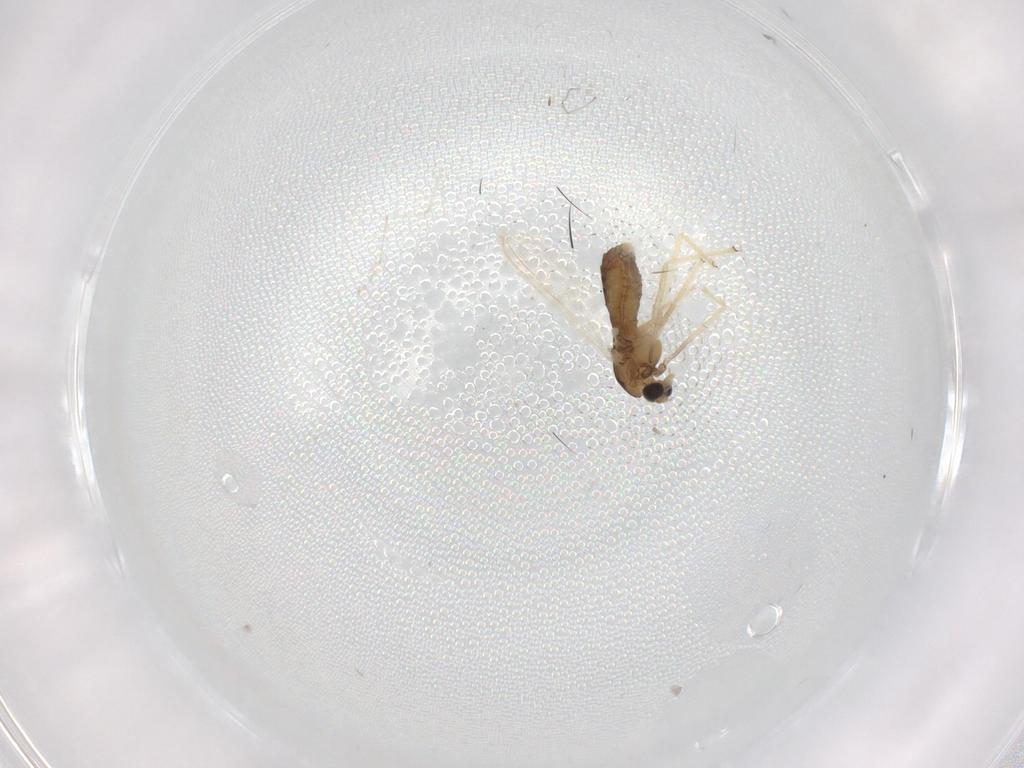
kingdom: Animalia
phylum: Arthropoda
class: Insecta
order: Diptera
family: Chironomidae
